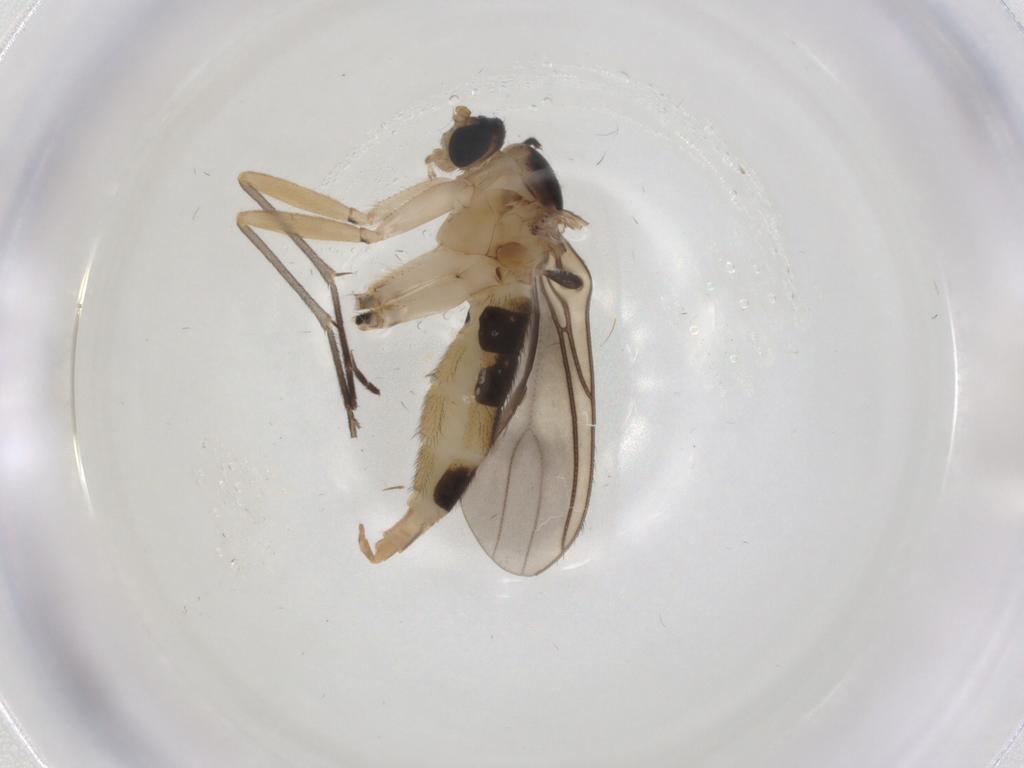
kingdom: Animalia
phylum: Arthropoda
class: Insecta
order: Diptera
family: Sciaridae
